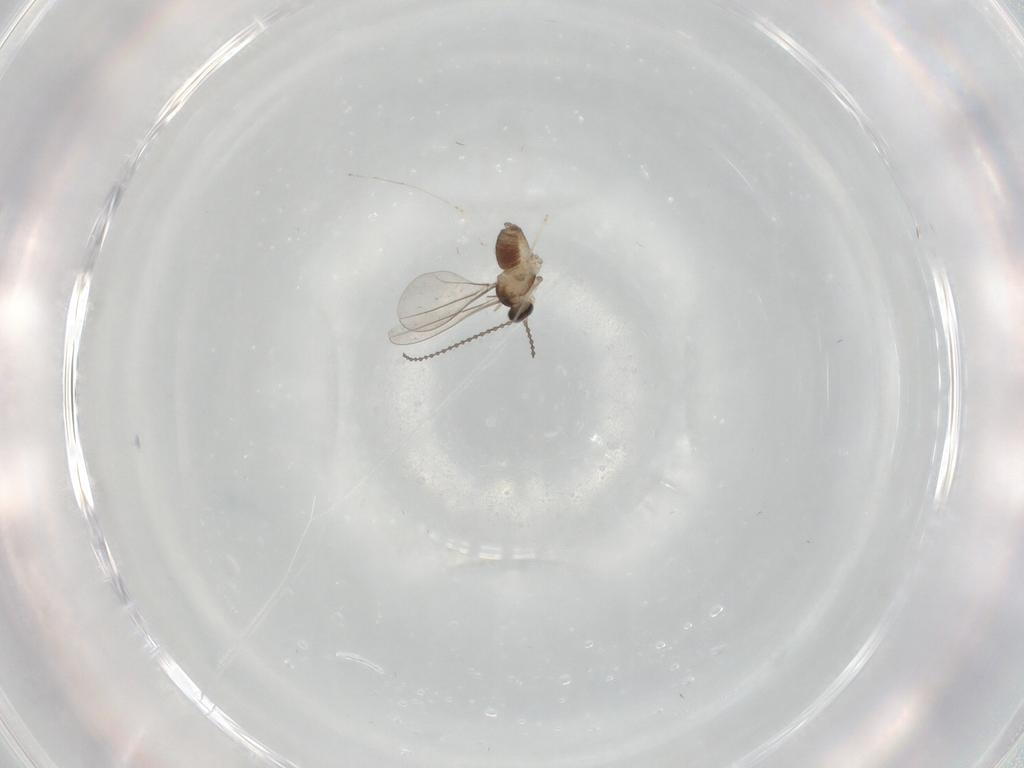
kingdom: Animalia
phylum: Arthropoda
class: Insecta
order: Diptera
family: Cecidomyiidae
